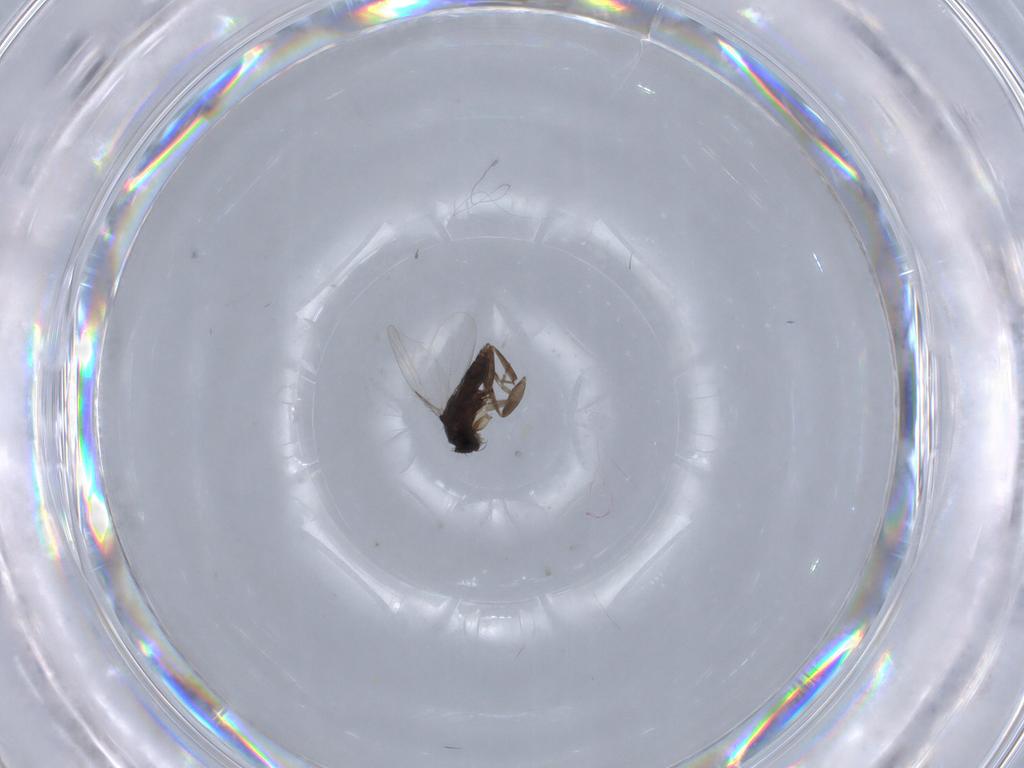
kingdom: Animalia
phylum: Arthropoda
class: Insecta
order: Diptera
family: Phoridae
